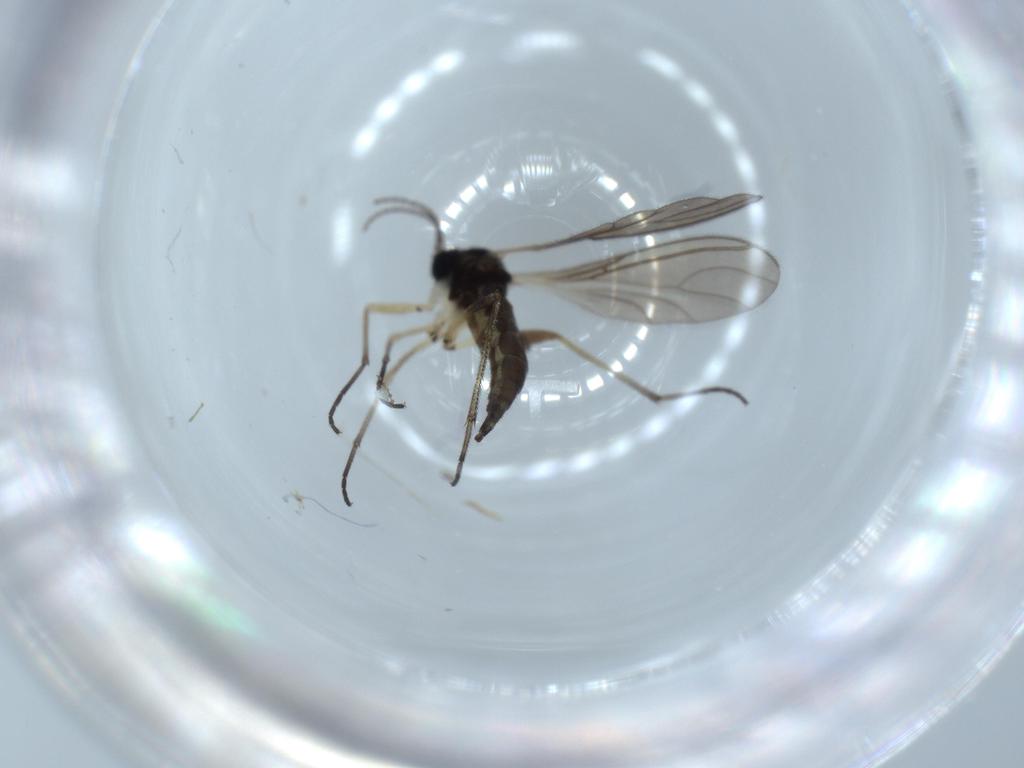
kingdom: Animalia
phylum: Arthropoda
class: Insecta
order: Diptera
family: Sciaridae
